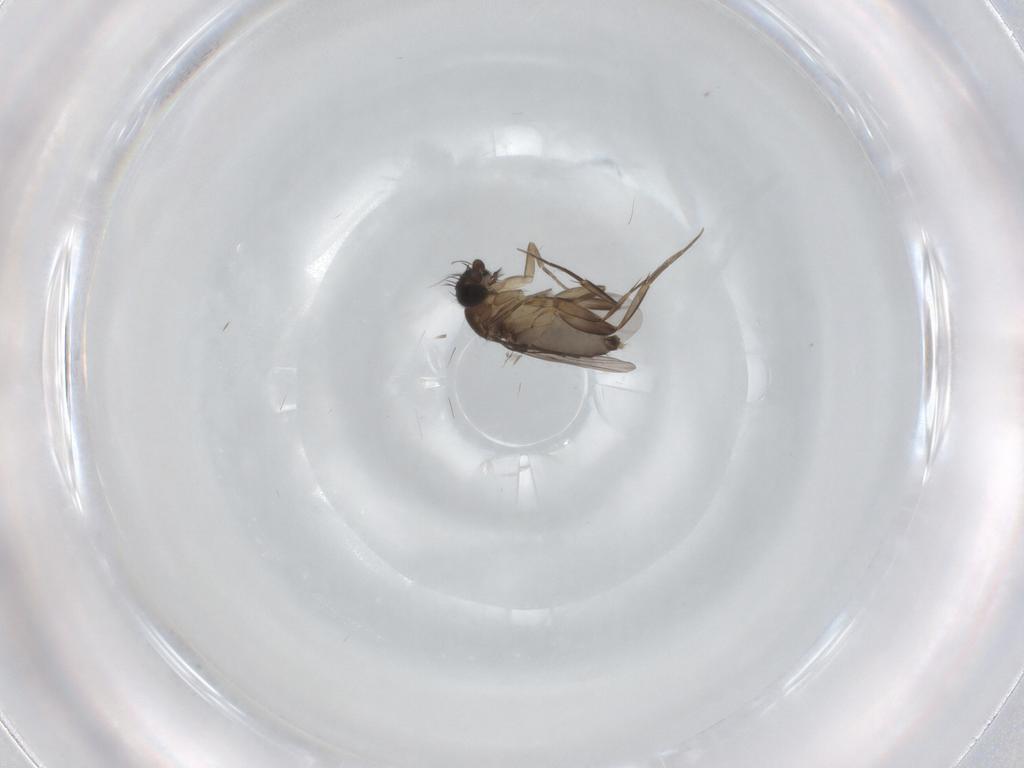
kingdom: Animalia
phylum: Arthropoda
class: Insecta
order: Diptera
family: Phoridae
